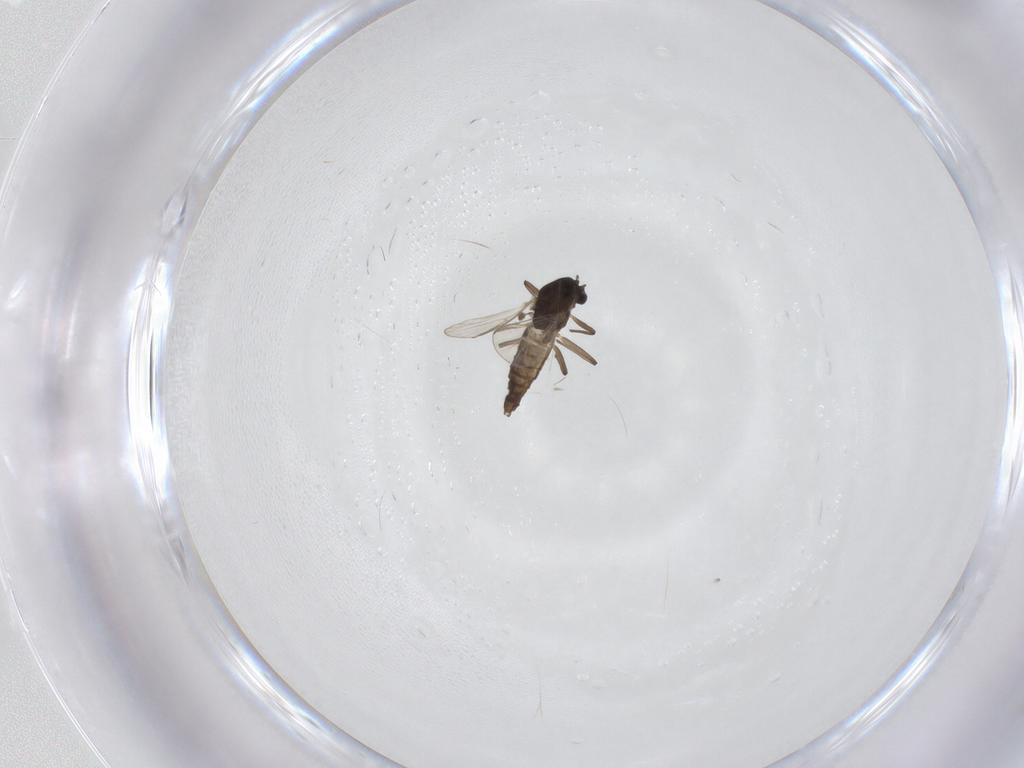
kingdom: Animalia
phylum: Arthropoda
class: Insecta
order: Diptera
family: Chironomidae
